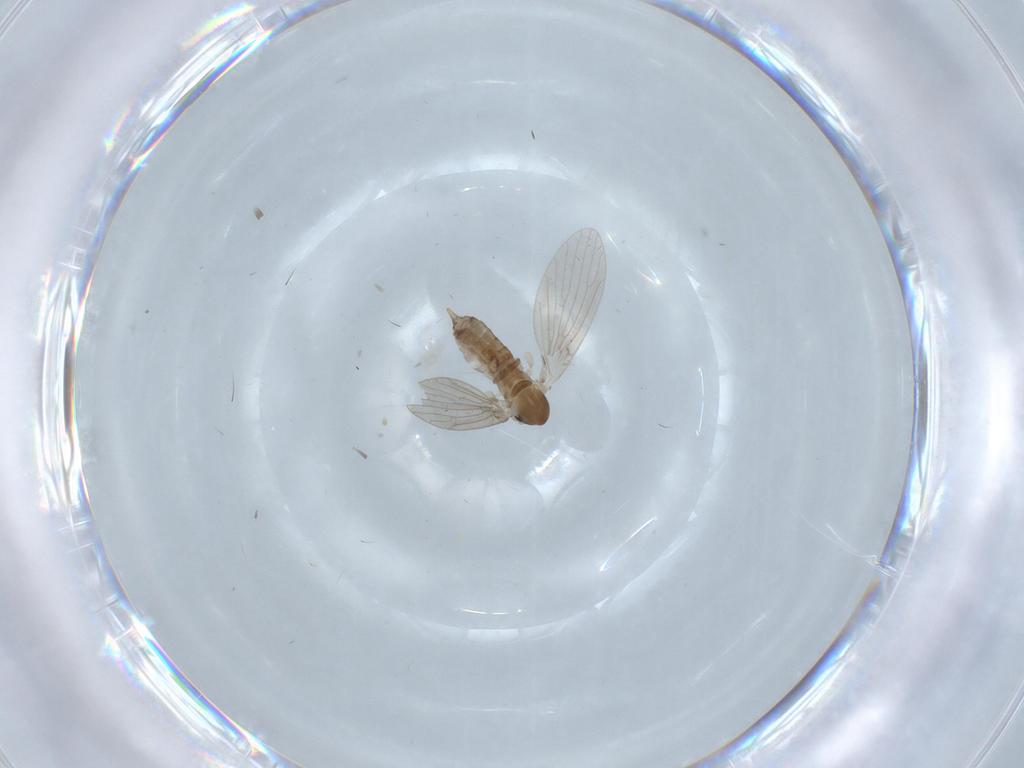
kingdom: Animalia
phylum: Arthropoda
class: Insecta
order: Diptera
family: Psychodidae
